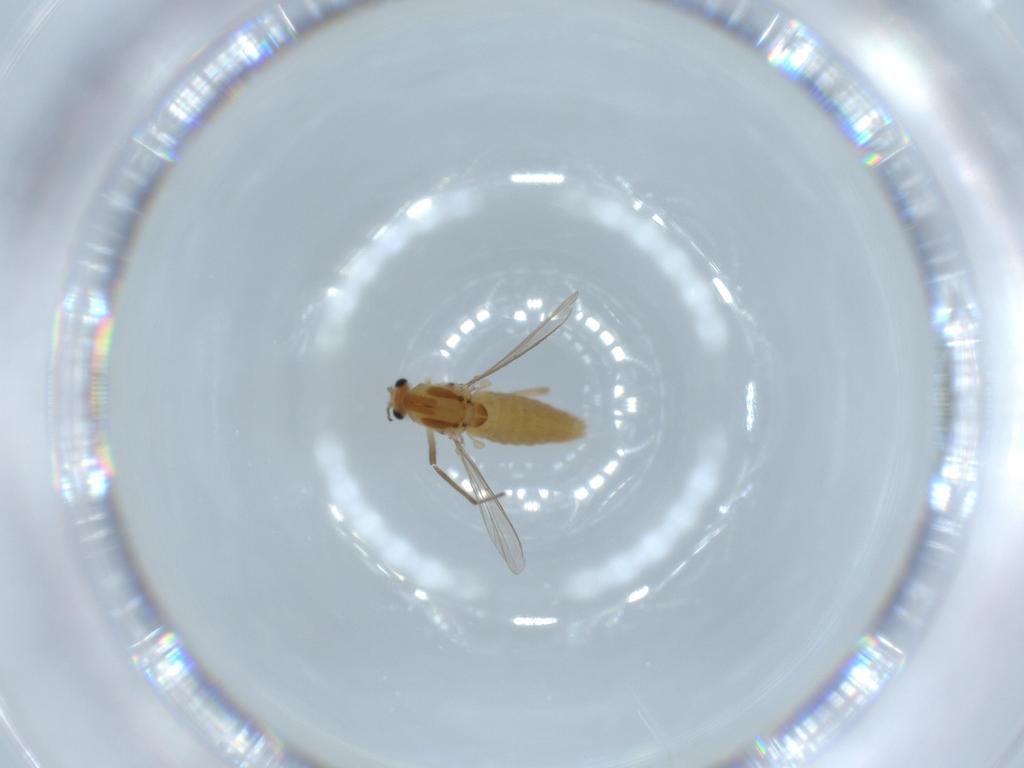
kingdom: Animalia
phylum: Arthropoda
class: Insecta
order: Diptera
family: Chironomidae
